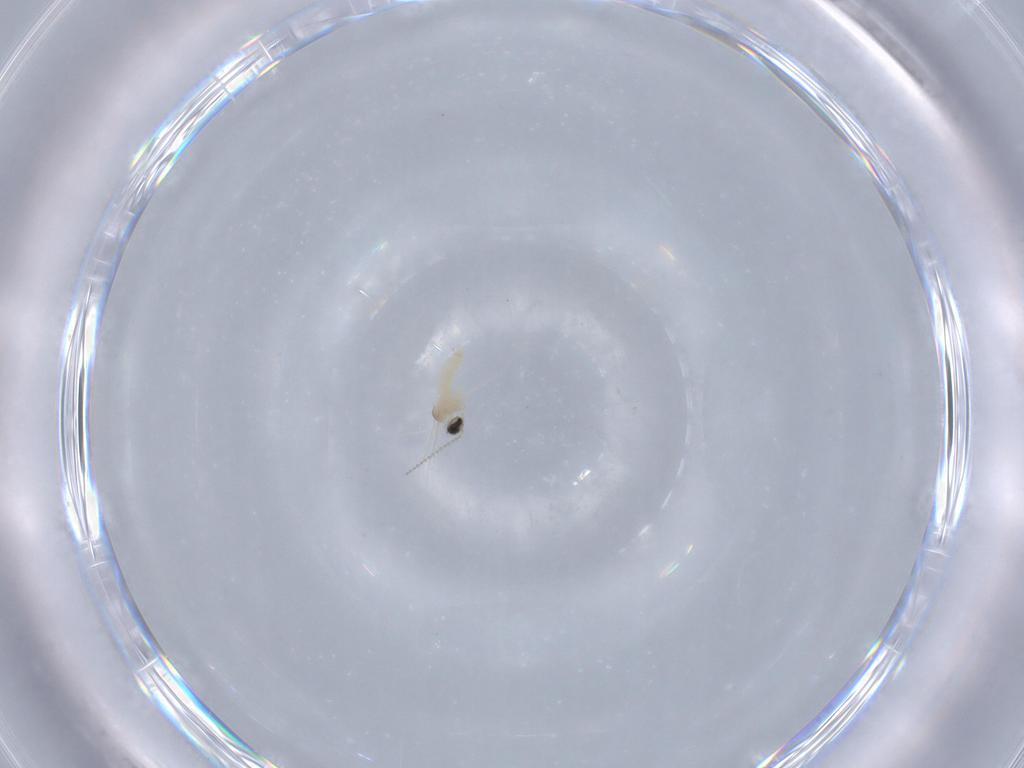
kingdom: Animalia
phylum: Arthropoda
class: Insecta
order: Diptera
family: Cecidomyiidae
